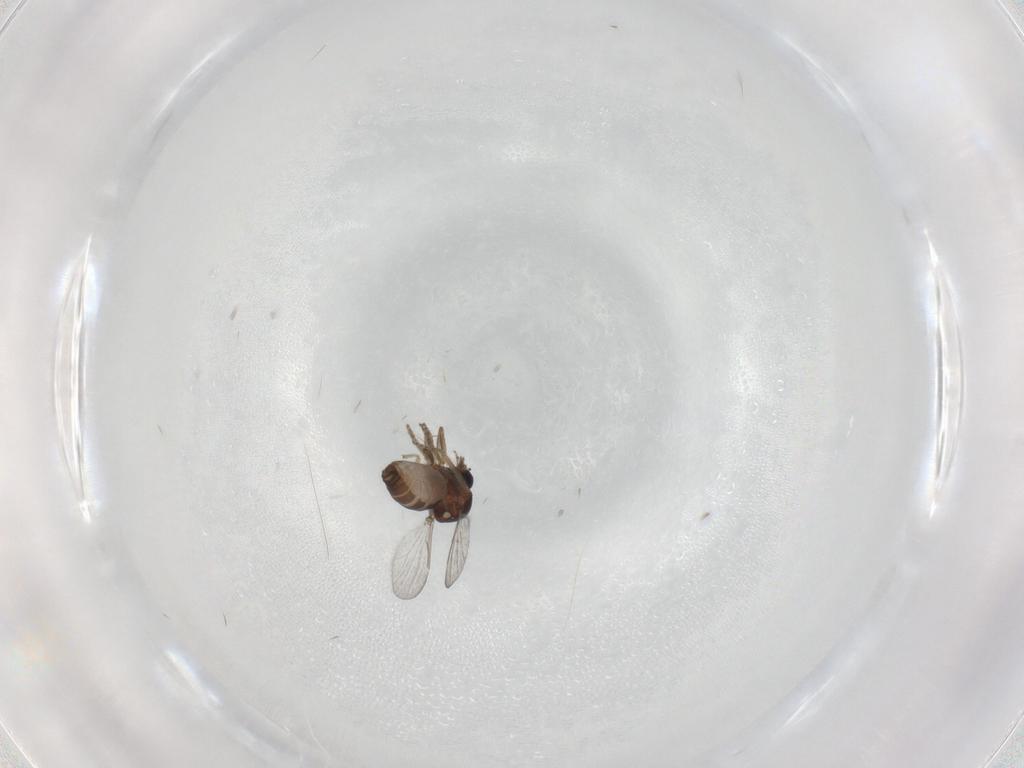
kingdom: Animalia
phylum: Arthropoda
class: Insecta
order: Diptera
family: Ceratopogonidae
